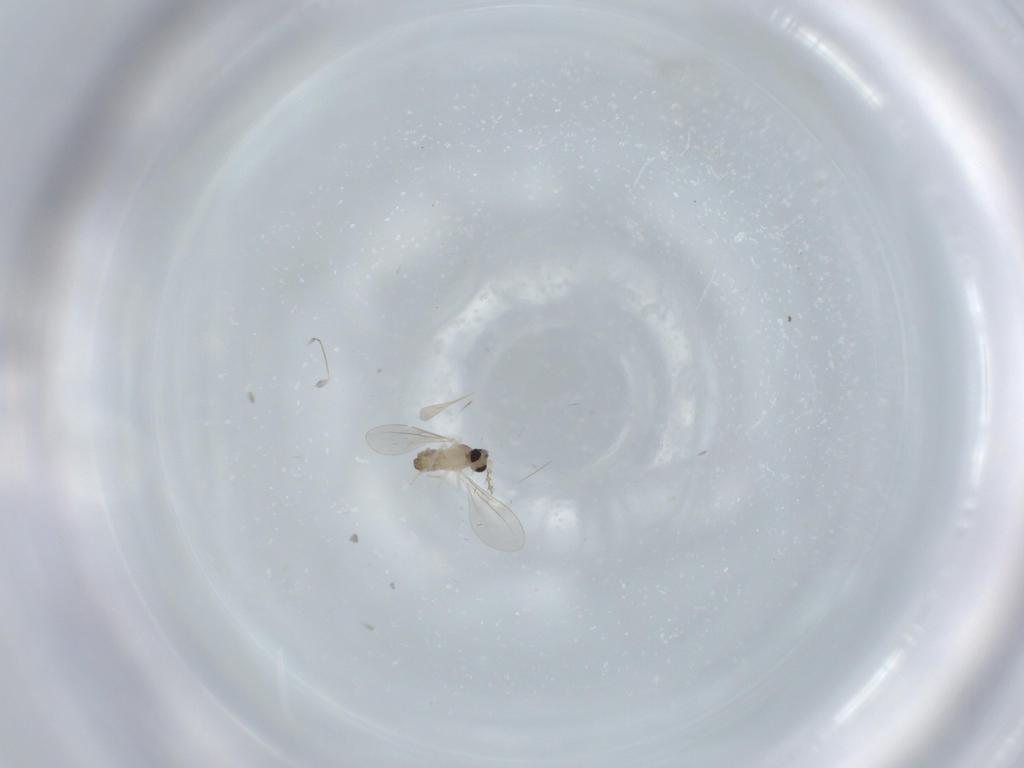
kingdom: Animalia
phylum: Arthropoda
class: Insecta
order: Diptera
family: Cecidomyiidae
